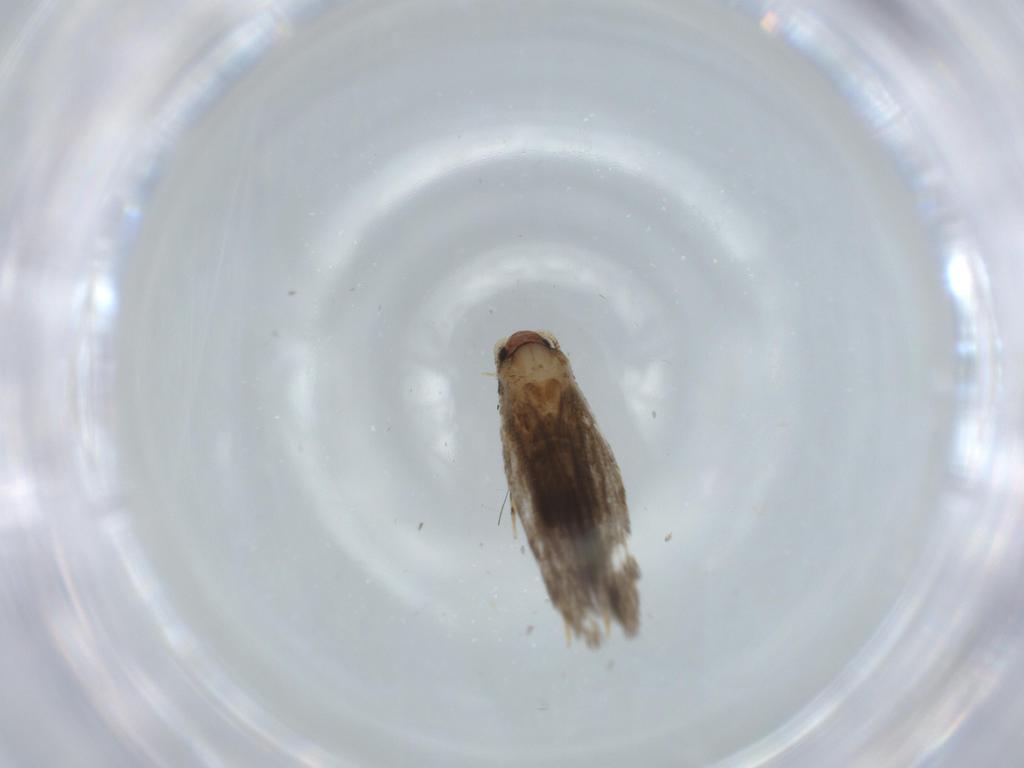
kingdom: Animalia
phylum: Arthropoda
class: Insecta
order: Lepidoptera
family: Tineidae
